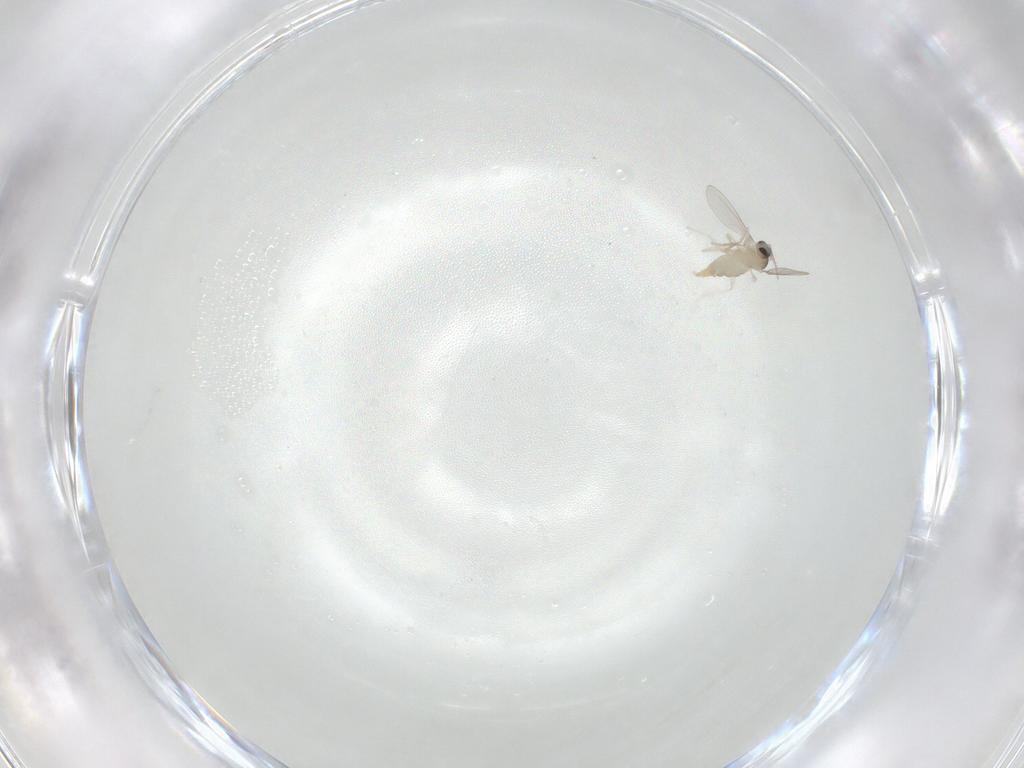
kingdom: Animalia
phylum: Arthropoda
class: Insecta
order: Diptera
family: Cecidomyiidae
